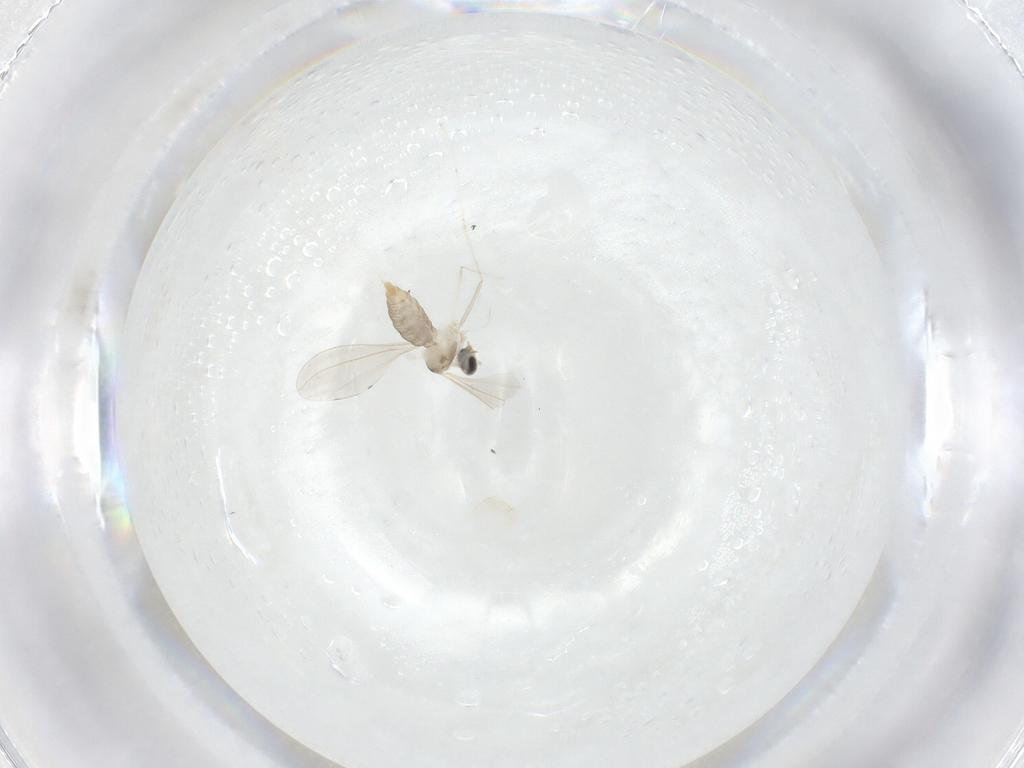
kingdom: Animalia
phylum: Arthropoda
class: Insecta
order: Diptera
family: Cecidomyiidae
